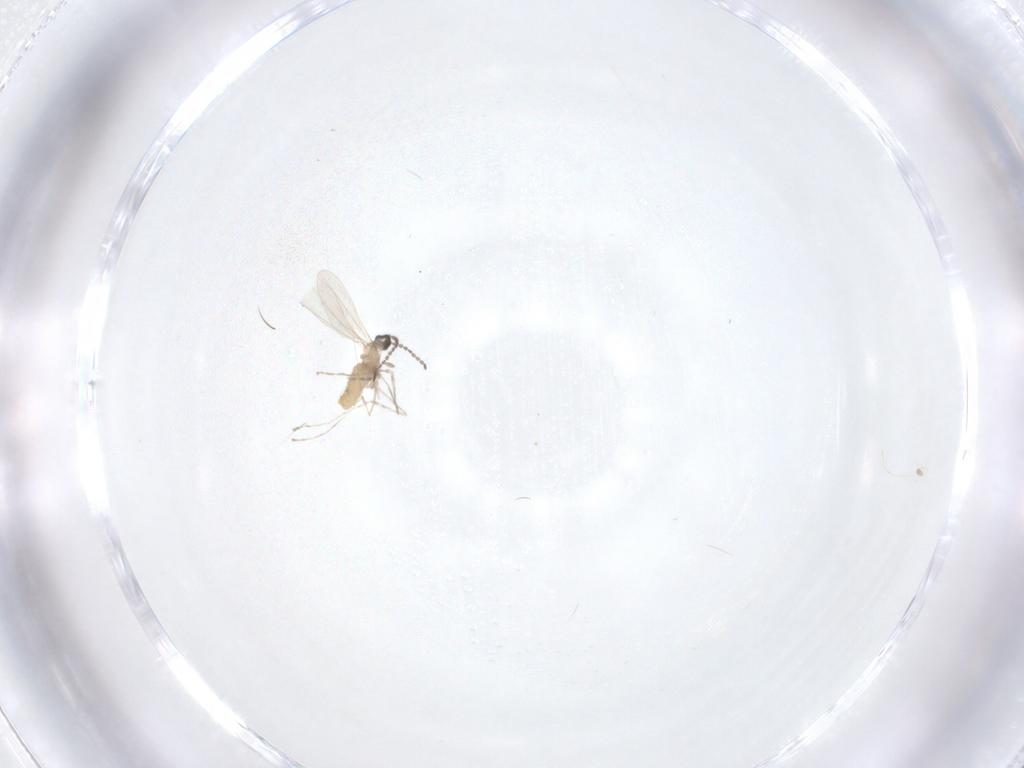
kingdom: Animalia
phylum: Arthropoda
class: Insecta
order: Diptera
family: Cecidomyiidae
